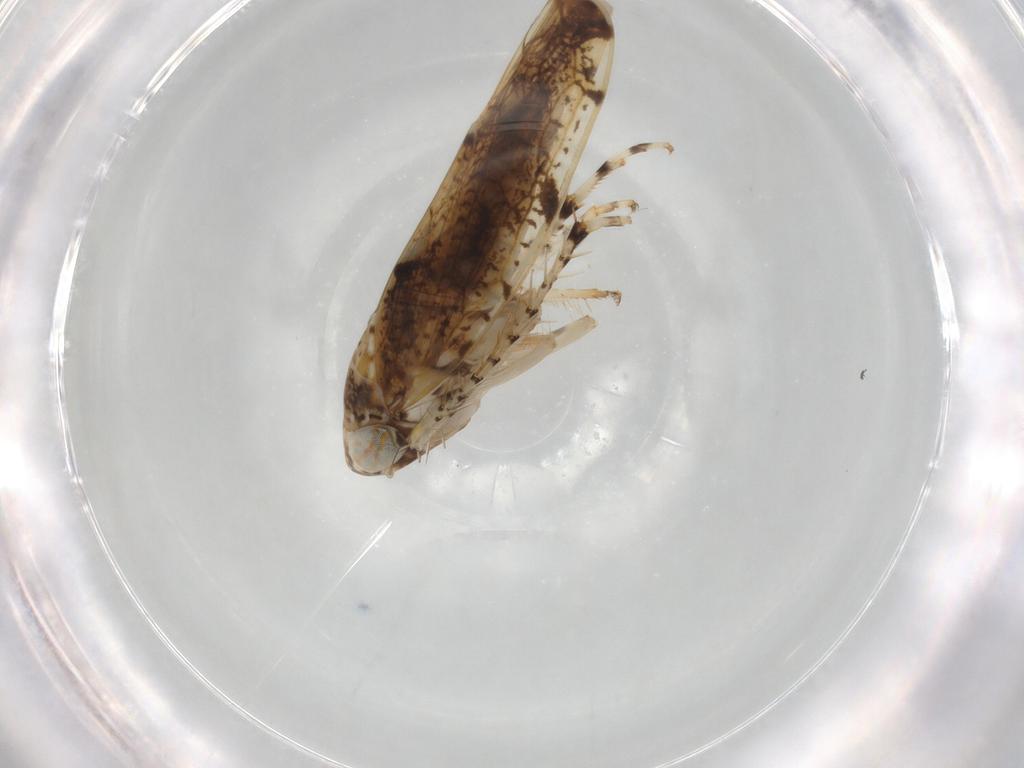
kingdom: Animalia
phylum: Arthropoda
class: Insecta
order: Hemiptera
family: Cicadellidae
